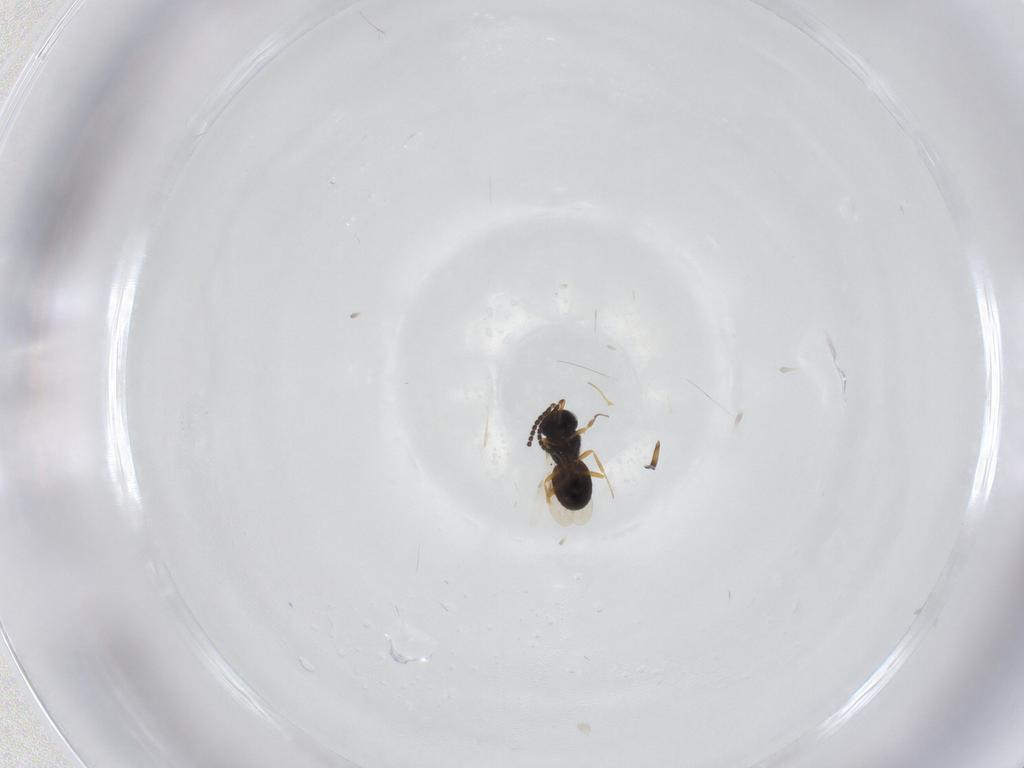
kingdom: Animalia
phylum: Arthropoda
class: Insecta
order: Hymenoptera
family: Scelionidae
